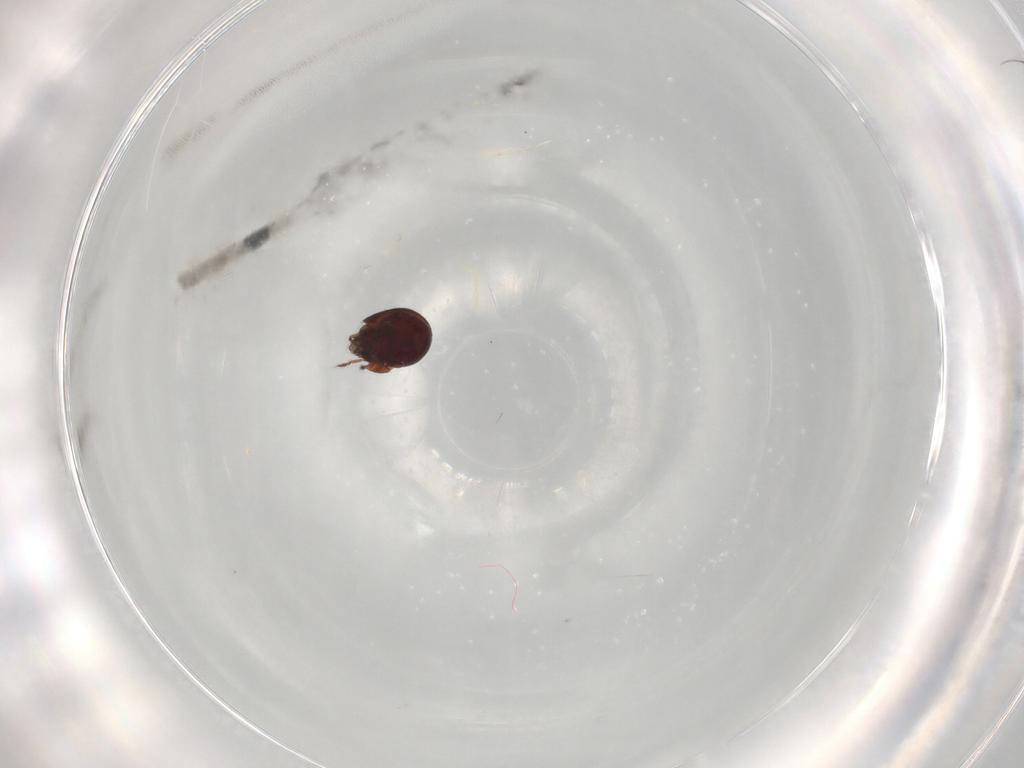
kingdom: Animalia
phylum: Arthropoda
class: Arachnida
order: Sarcoptiformes
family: Humerobatidae
